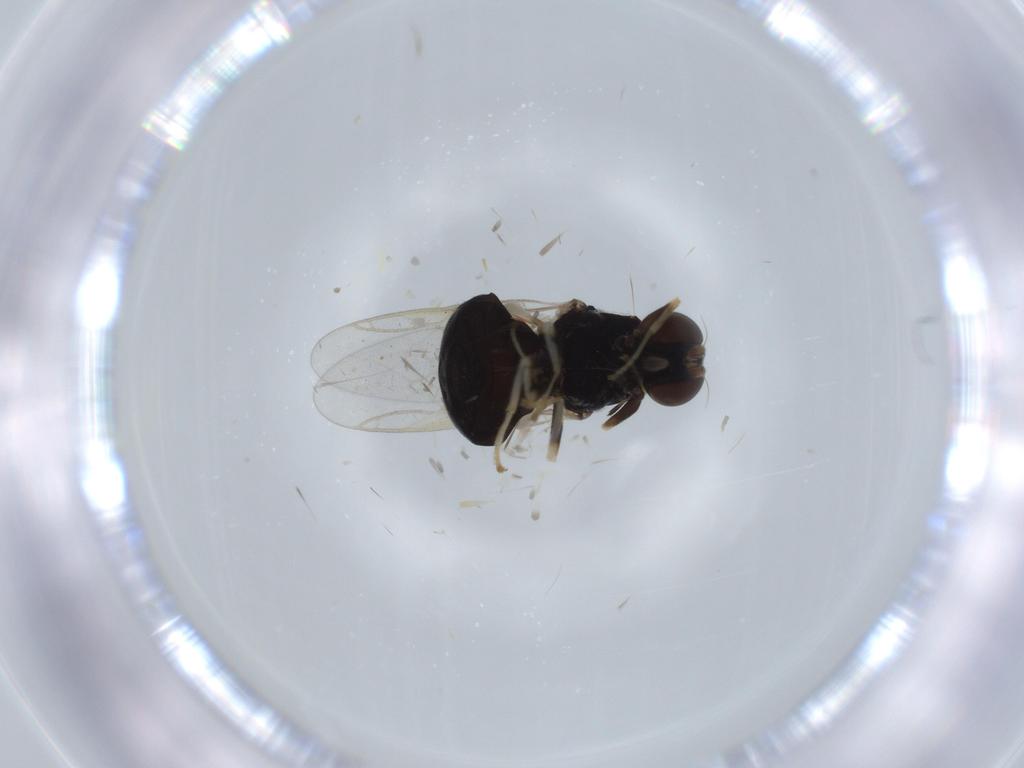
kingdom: Animalia
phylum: Arthropoda
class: Insecta
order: Diptera
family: Stratiomyidae
